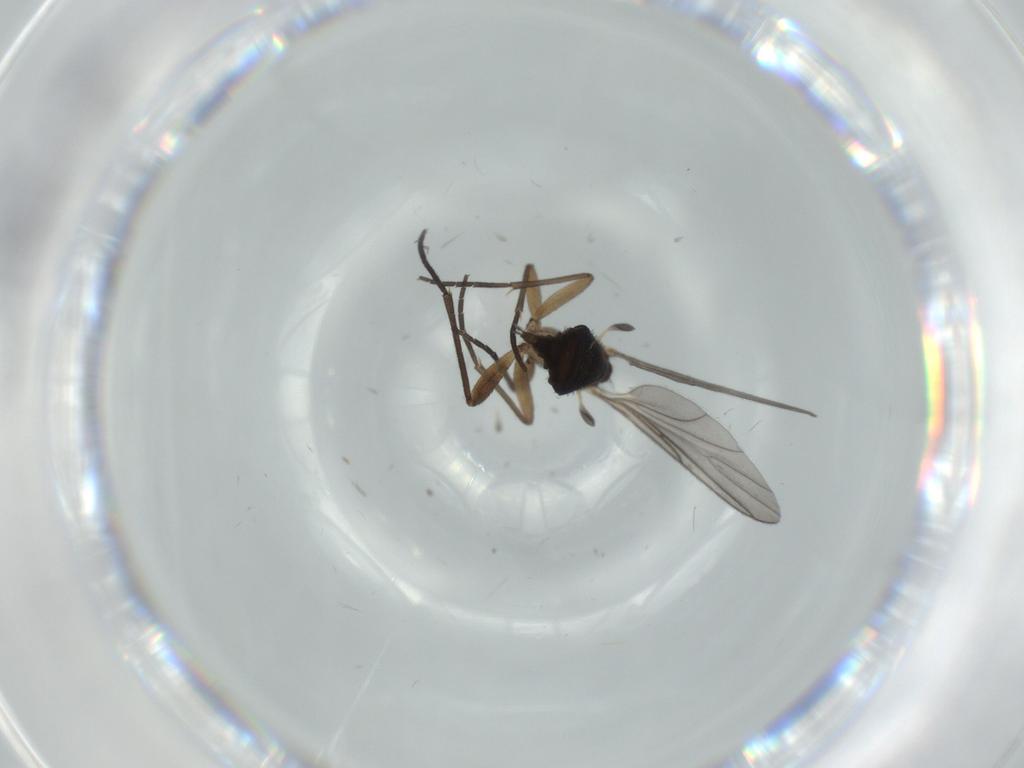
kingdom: Animalia
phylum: Arthropoda
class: Insecta
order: Diptera
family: Sciaridae
